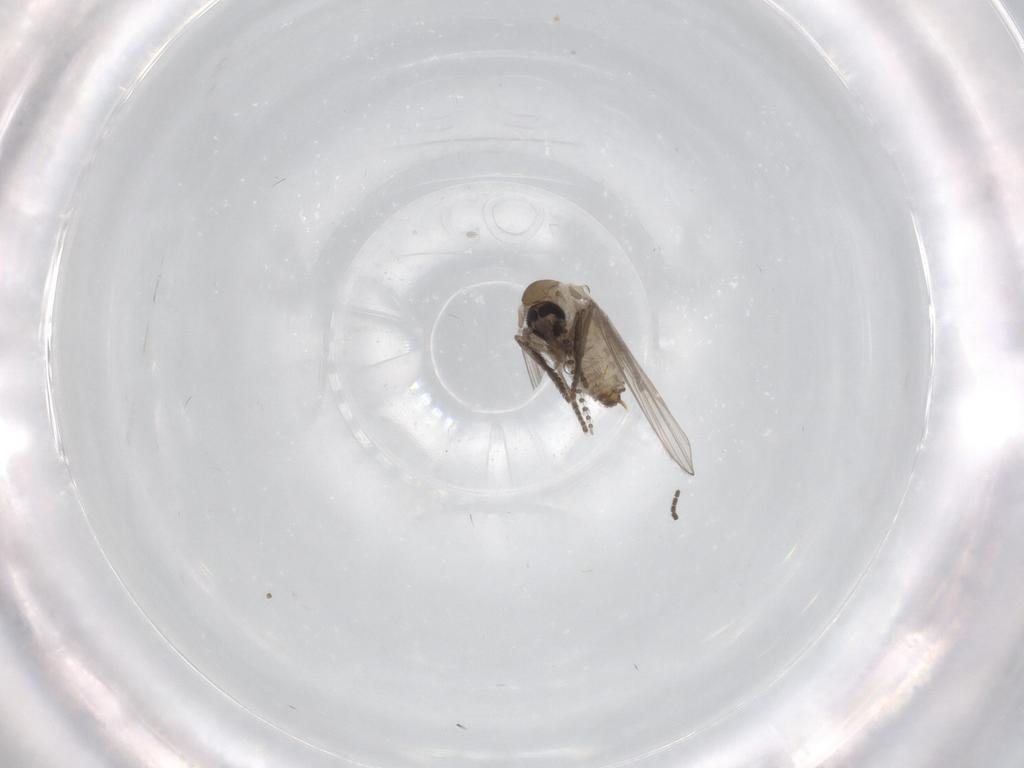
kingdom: Animalia
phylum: Arthropoda
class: Insecta
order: Diptera
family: Psychodidae
